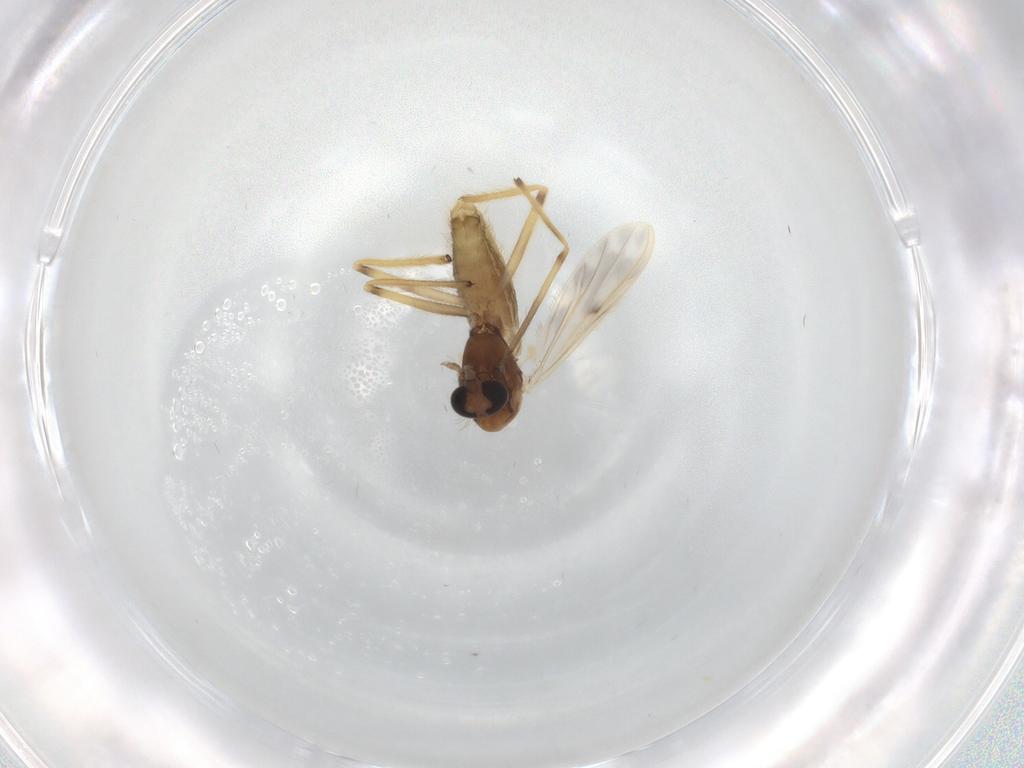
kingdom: Animalia
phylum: Arthropoda
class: Insecta
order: Diptera
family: Chironomidae
